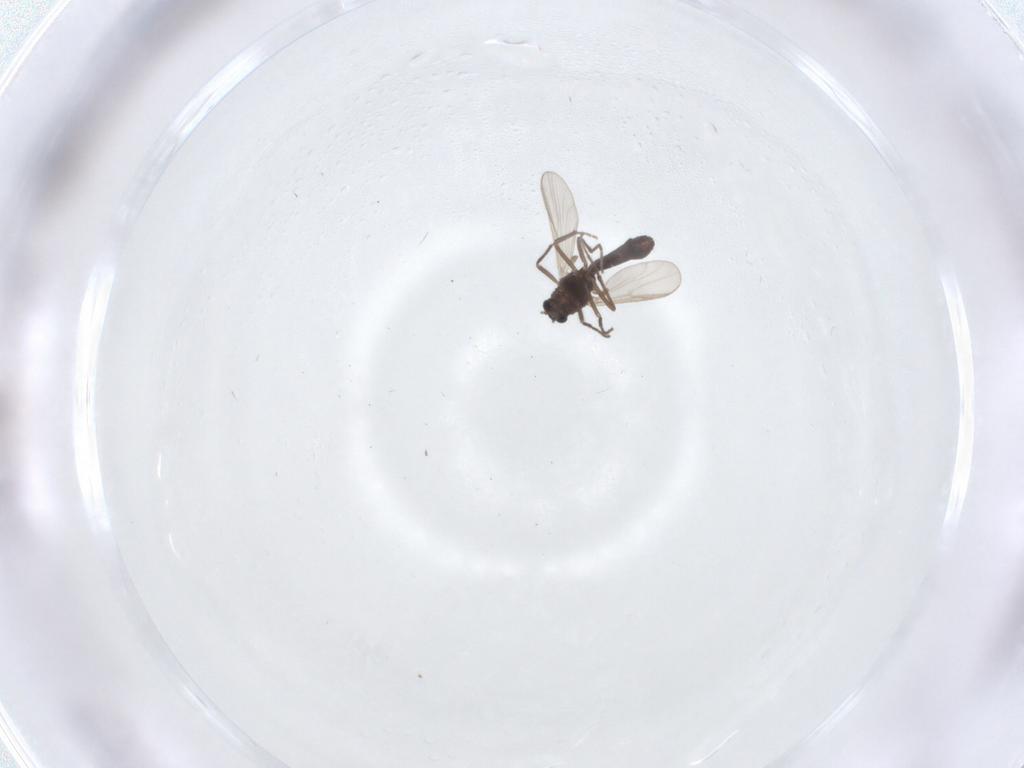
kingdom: Animalia
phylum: Arthropoda
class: Insecta
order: Diptera
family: Chironomidae
